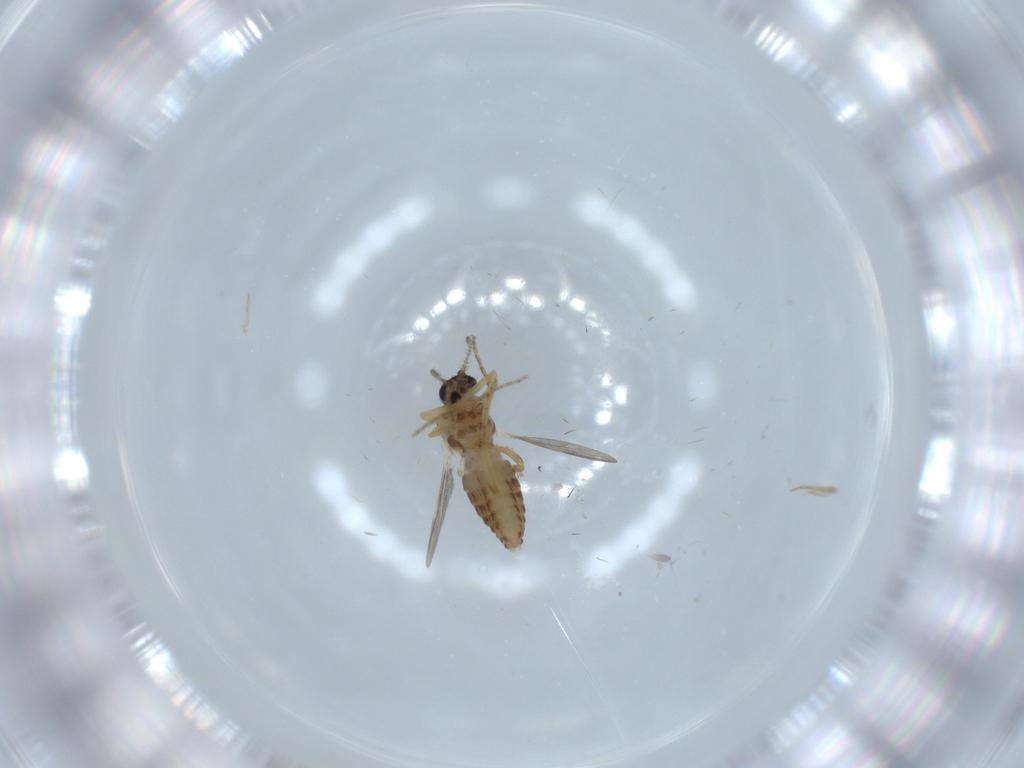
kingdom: Animalia
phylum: Arthropoda
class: Insecta
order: Diptera
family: Ceratopogonidae
